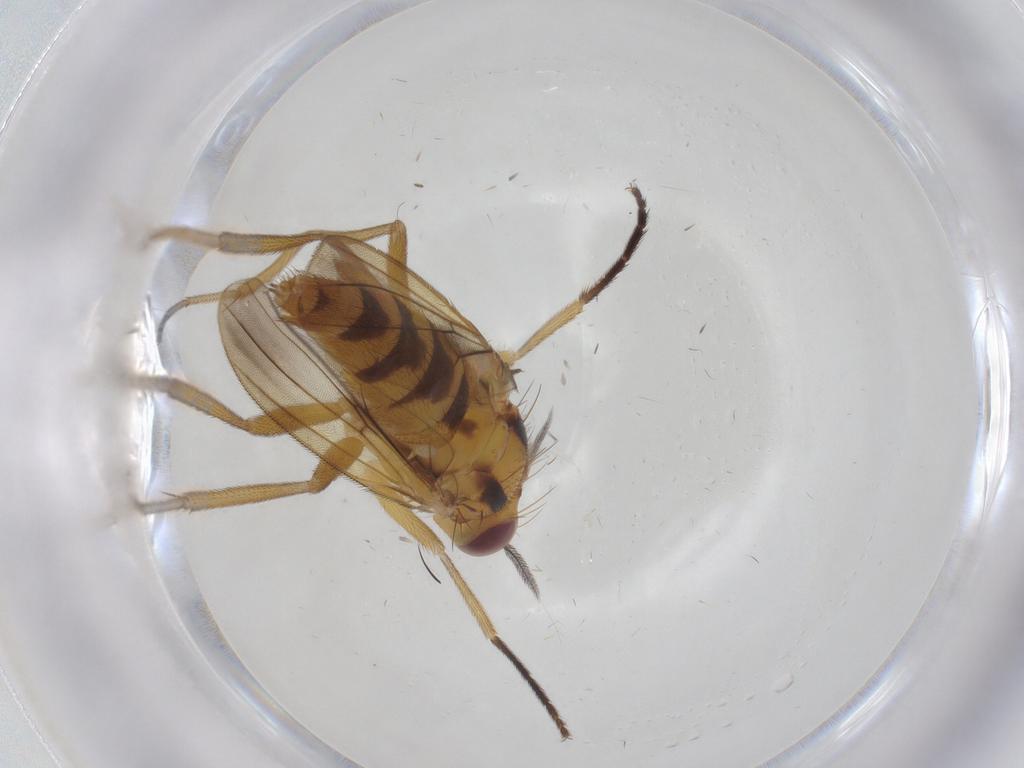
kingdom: Animalia
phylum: Arthropoda
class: Insecta
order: Diptera
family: Clusiidae
